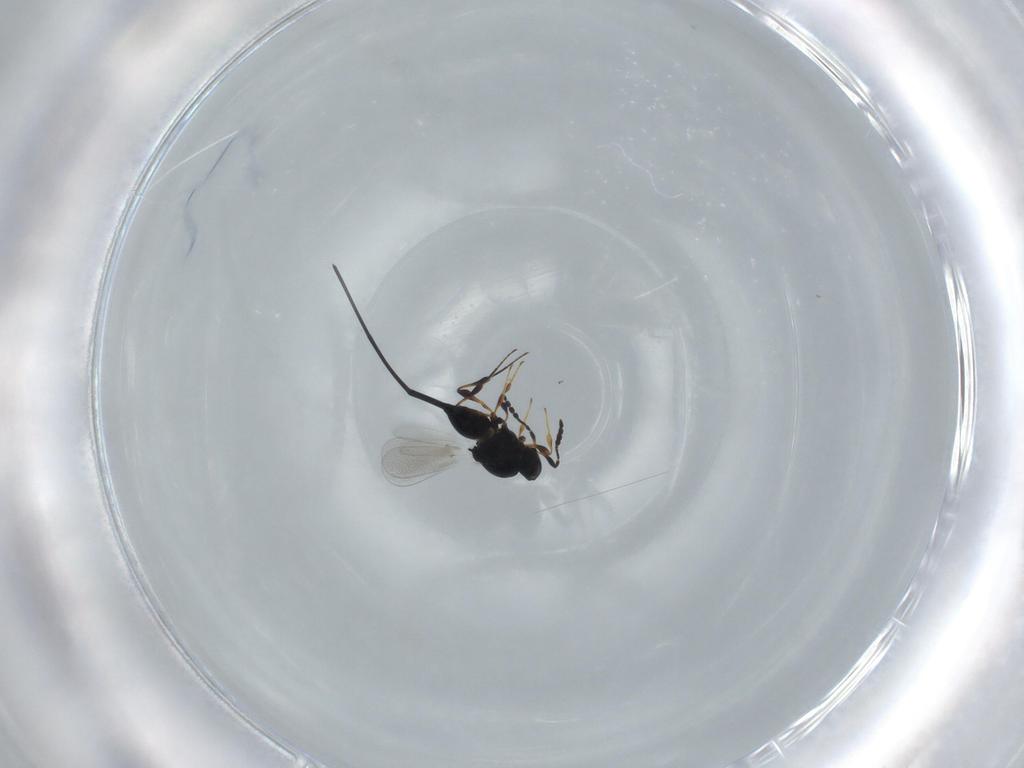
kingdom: Animalia
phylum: Arthropoda
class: Insecta
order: Hymenoptera
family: Platygastridae
